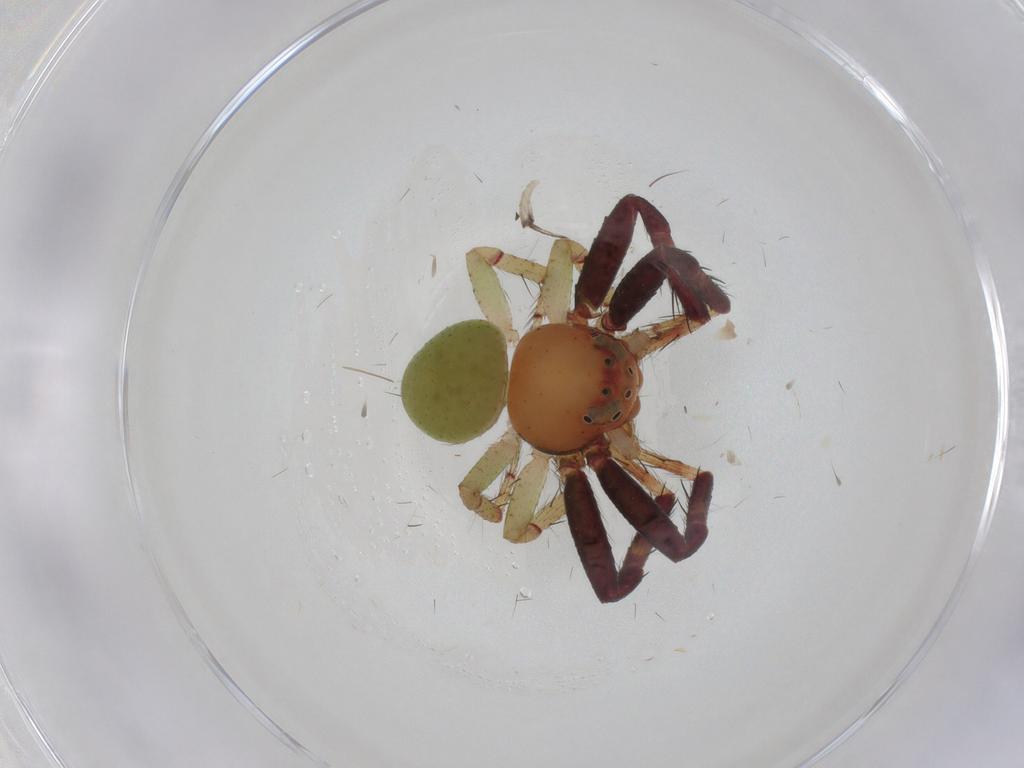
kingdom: Animalia
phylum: Arthropoda
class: Arachnida
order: Araneae
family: Thomisidae
